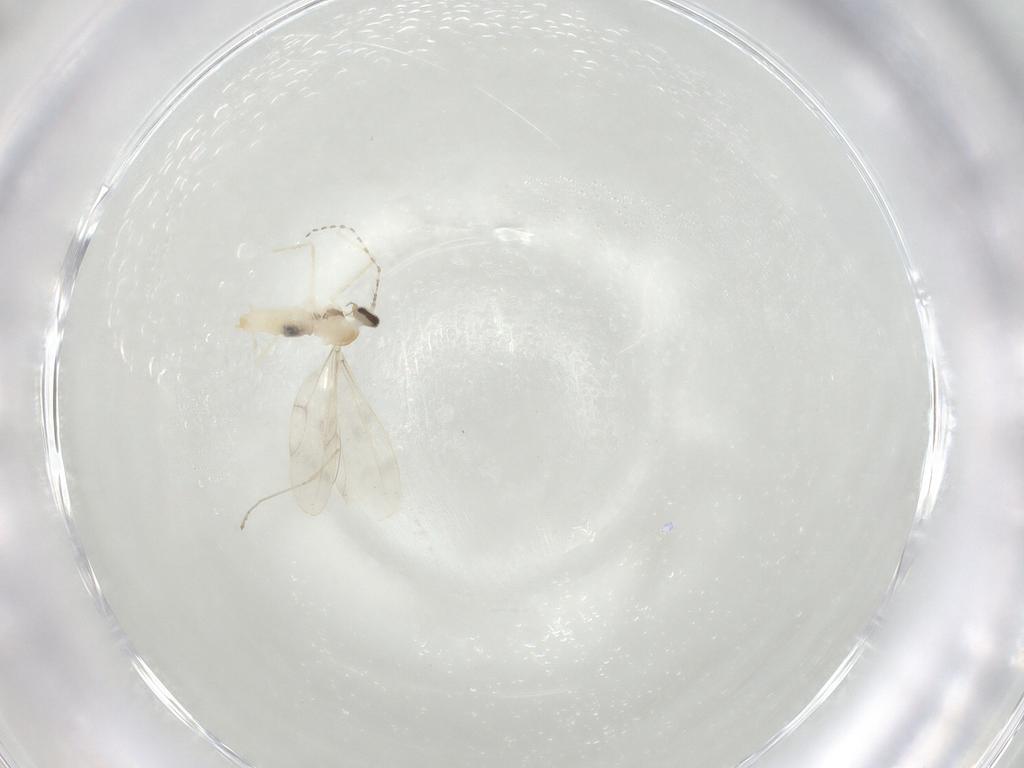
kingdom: Animalia
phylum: Arthropoda
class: Insecta
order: Diptera
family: Cecidomyiidae
